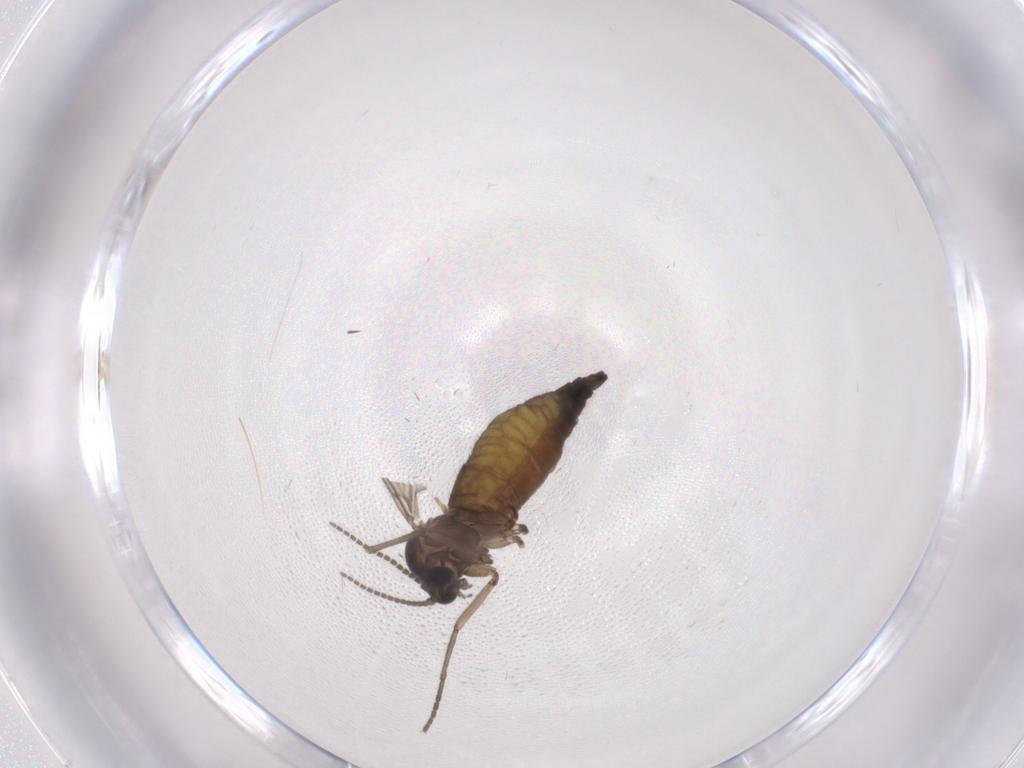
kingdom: Animalia
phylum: Arthropoda
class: Insecta
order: Diptera
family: Sciaridae
